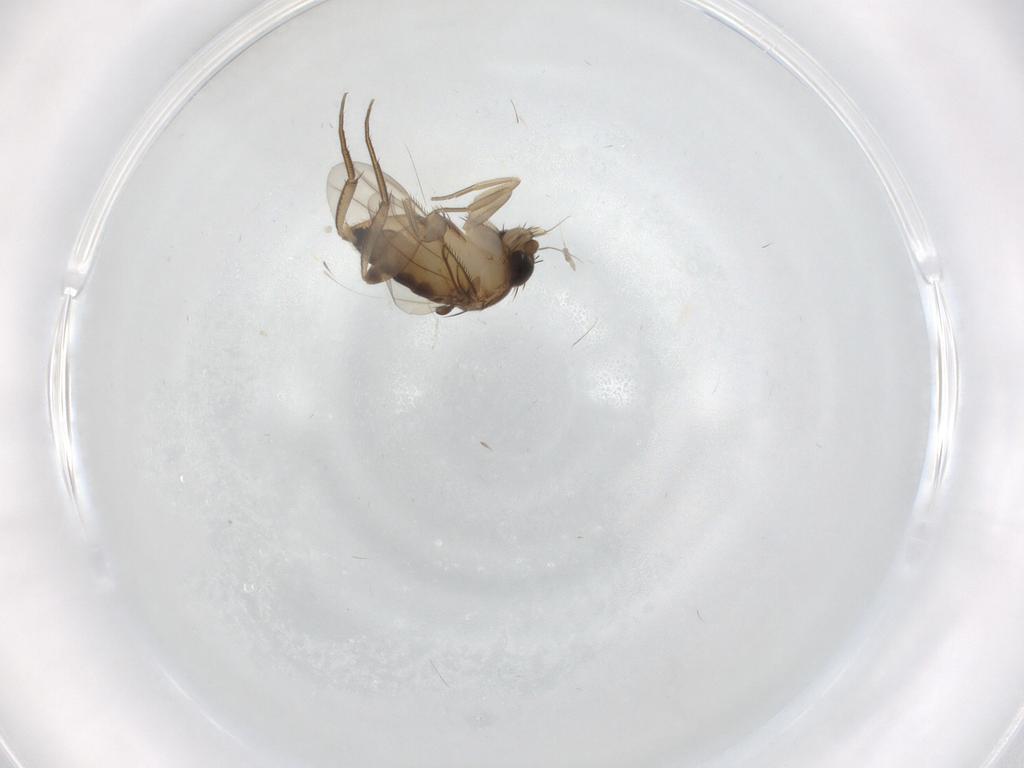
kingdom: Animalia
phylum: Arthropoda
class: Insecta
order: Diptera
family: Phoridae
